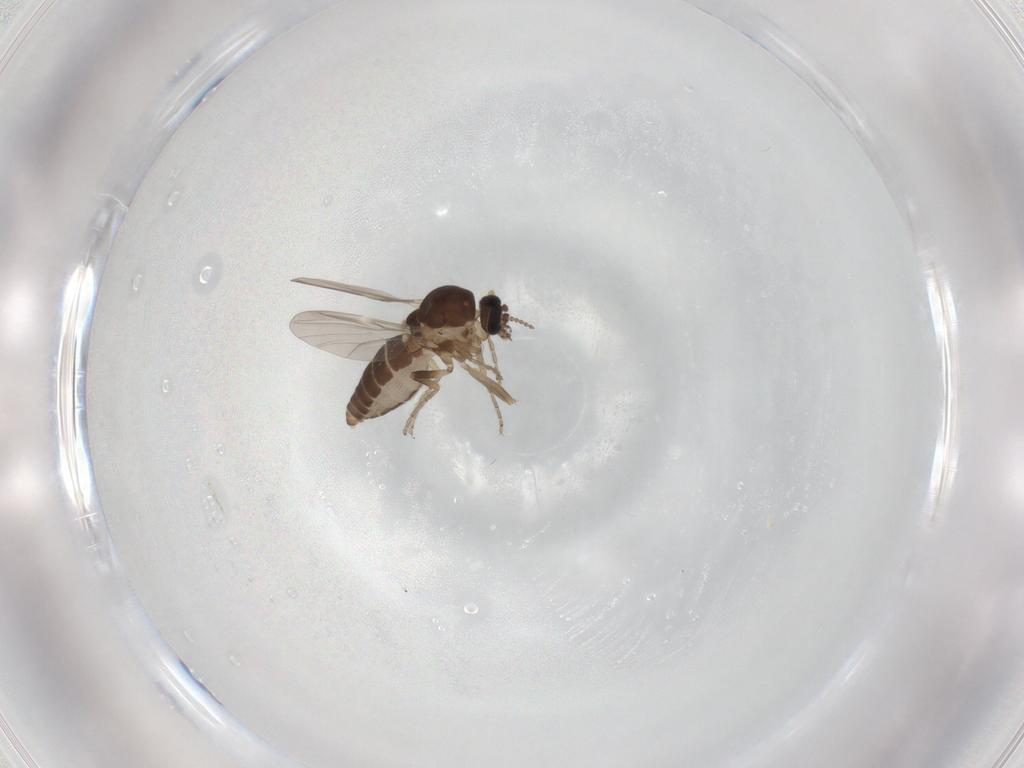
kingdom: Animalia
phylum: Arthropoda
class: Insecta
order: Diptera
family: Ceratopogonidae
